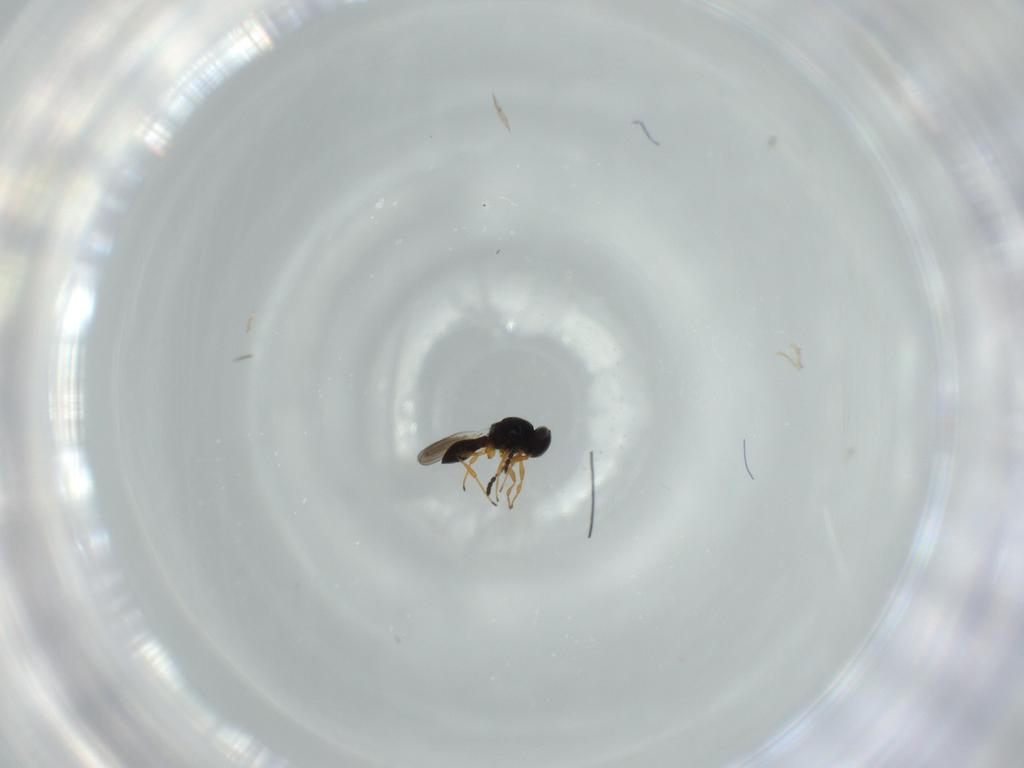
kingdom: Animalia
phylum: Arthropoda
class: Insecta
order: Hymenoptera
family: Platygastridae
